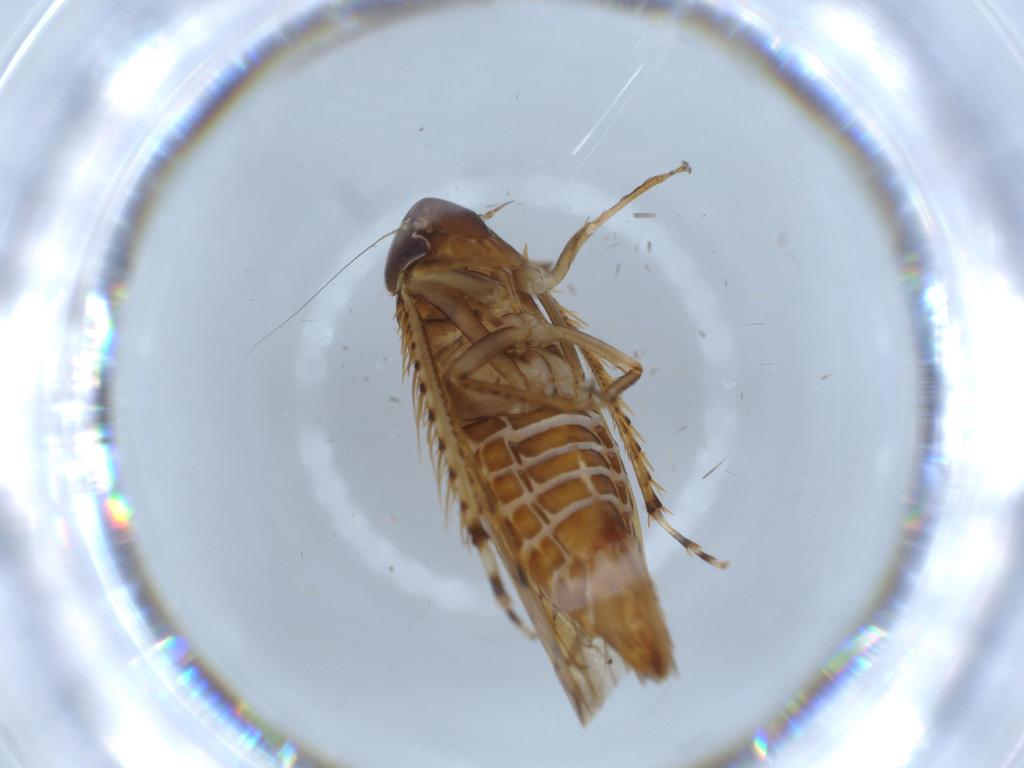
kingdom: Animalia
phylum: Arthropoda
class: Insecta
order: Hemiptera
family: Cicadellidae
